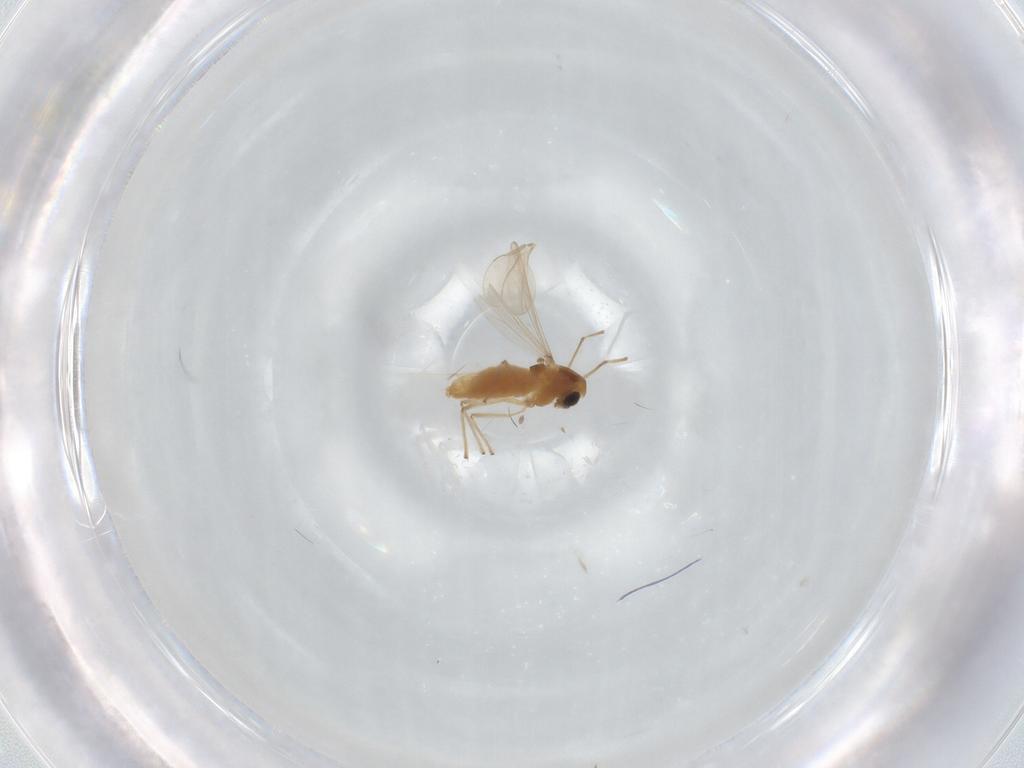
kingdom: Animalia
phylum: Arthropoda
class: Insecta
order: Diptera
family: Chironomidae
